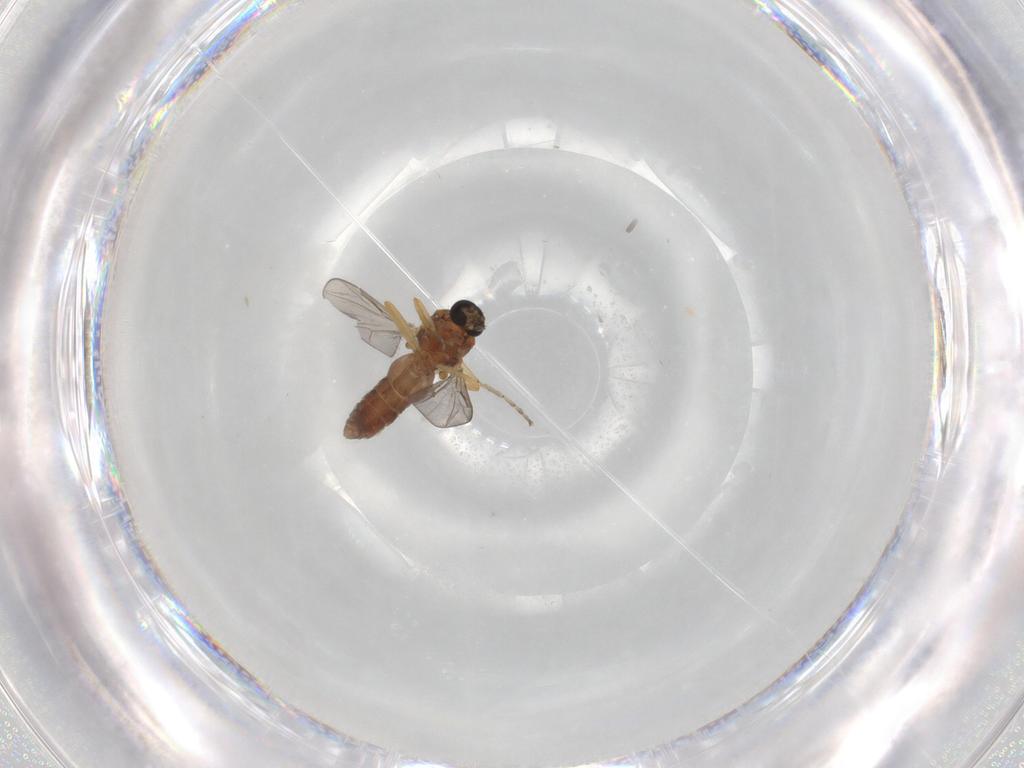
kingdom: Animalia
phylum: Arthropoda
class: Insecta
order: Diptera
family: Ceratopogonidae
